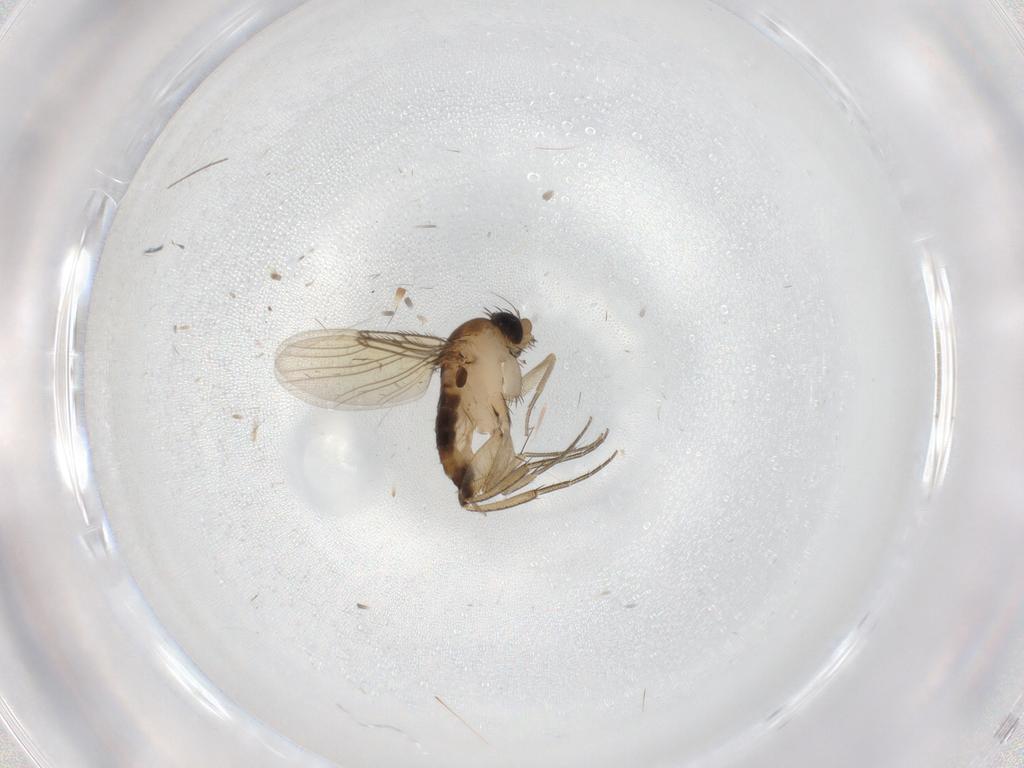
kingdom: Animalia
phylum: Arthropoda
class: Insecta
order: Diptera
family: Phoridae
